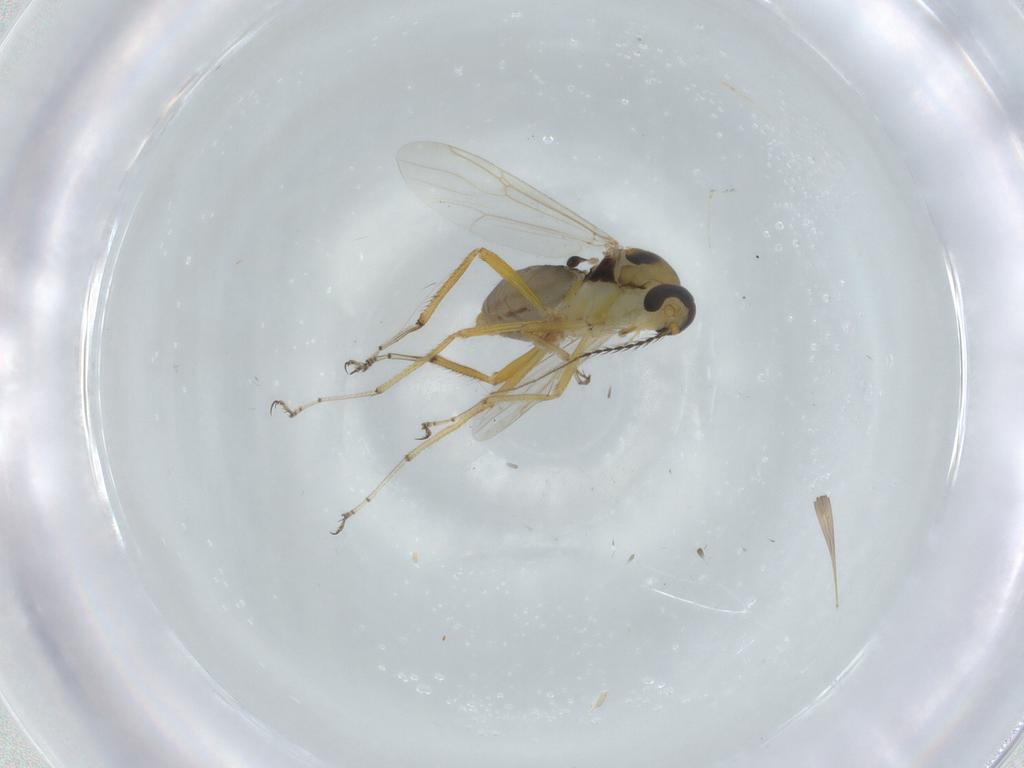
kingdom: Animalia
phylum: Arthropoda
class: Insecta
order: Diptera
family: Ceratopogonidae
